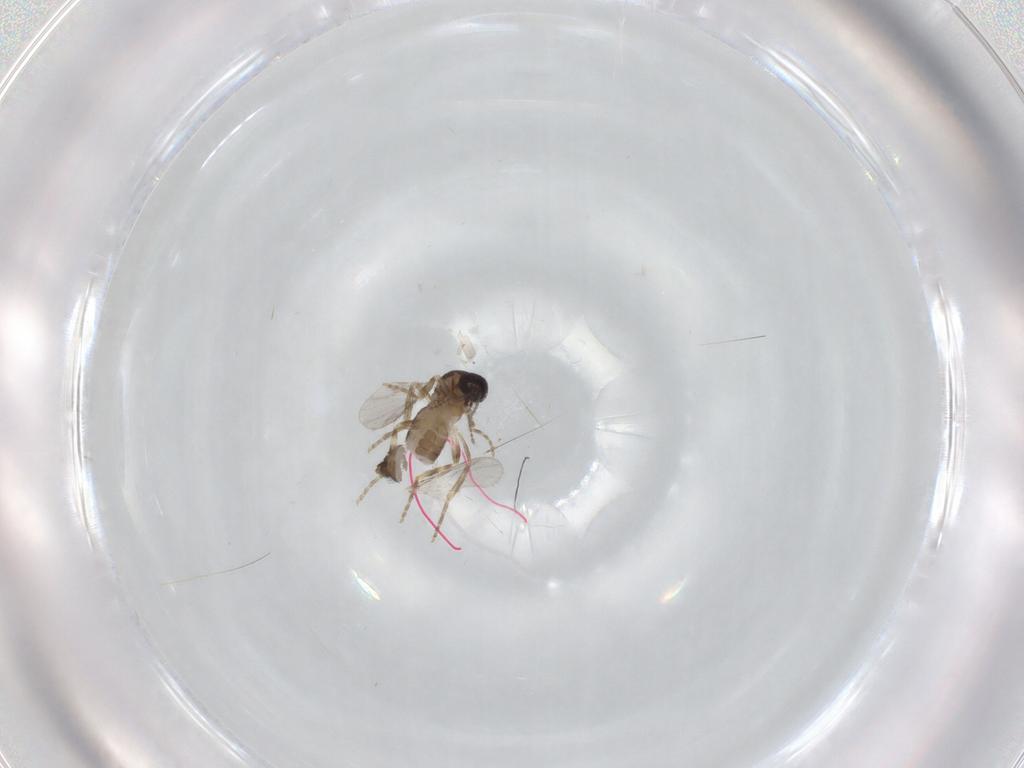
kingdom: Animalia
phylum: Arthropoda
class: Insecta
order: Diptera
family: Ceratopogonidae
